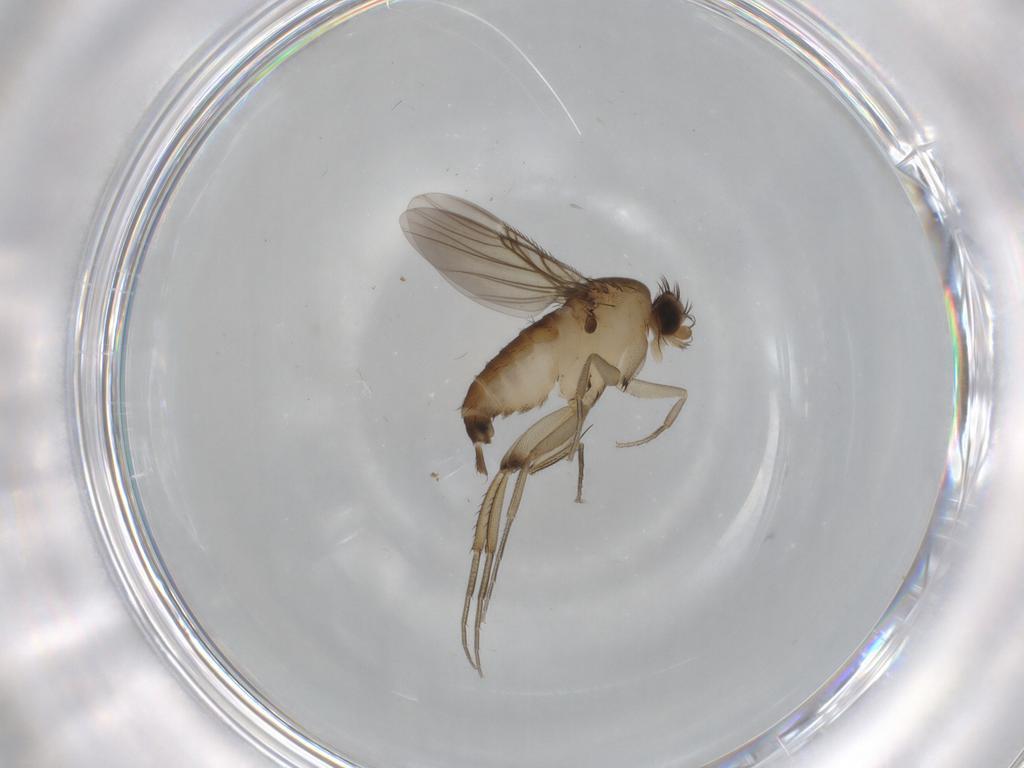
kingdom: Animalia
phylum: Arthropoda
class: Insecta
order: Diptera
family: Phoridae
